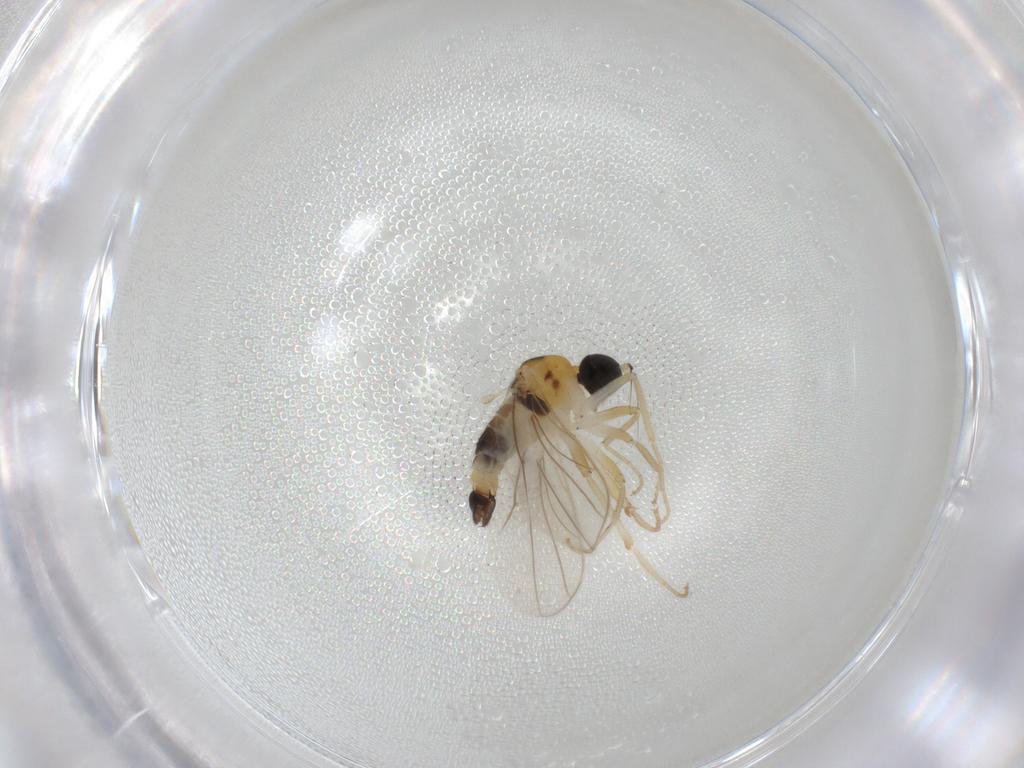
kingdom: Animalia
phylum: Arthropoda
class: Insecta
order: Diptera
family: Hybotidae
